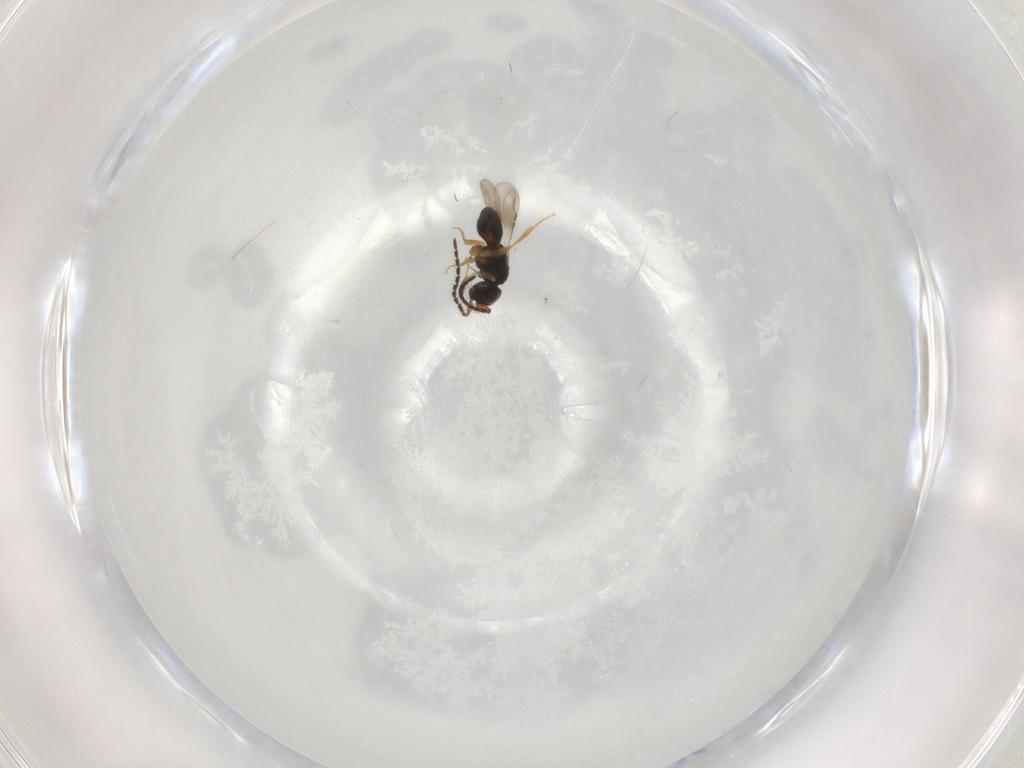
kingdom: Animalia
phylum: Arthropoda
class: Insecta
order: Hymenoptera
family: Ceraphronidae
